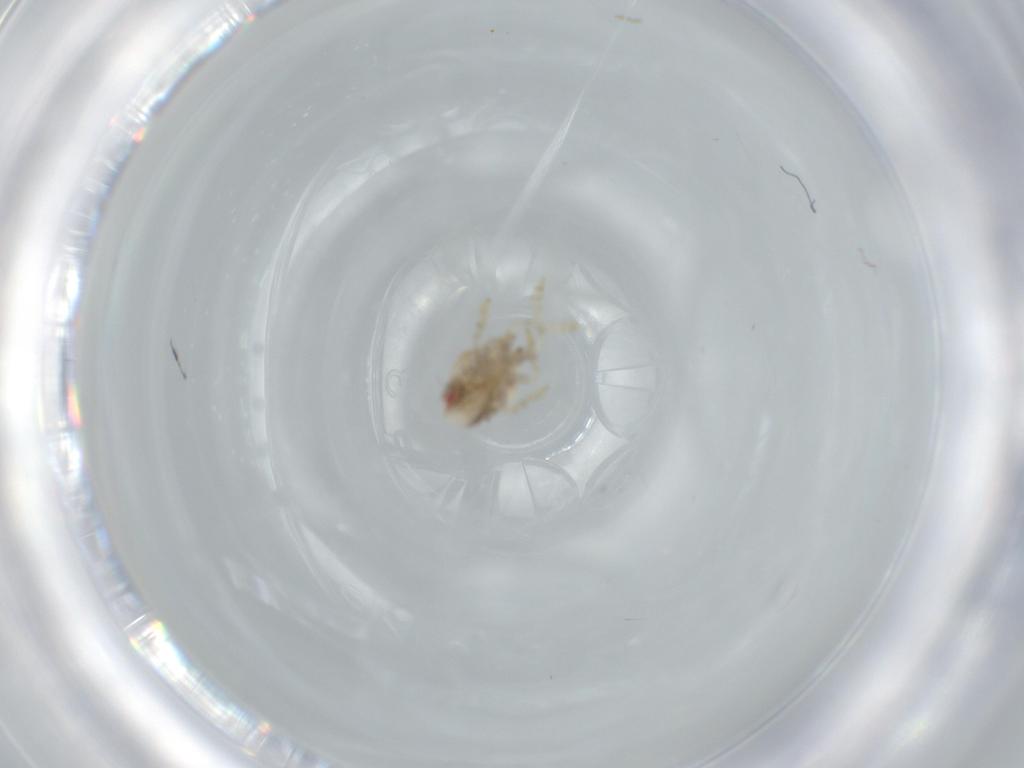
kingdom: Animalia
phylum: Arthropoda
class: Insecta
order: Hemiptera
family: Acanaloniidae
